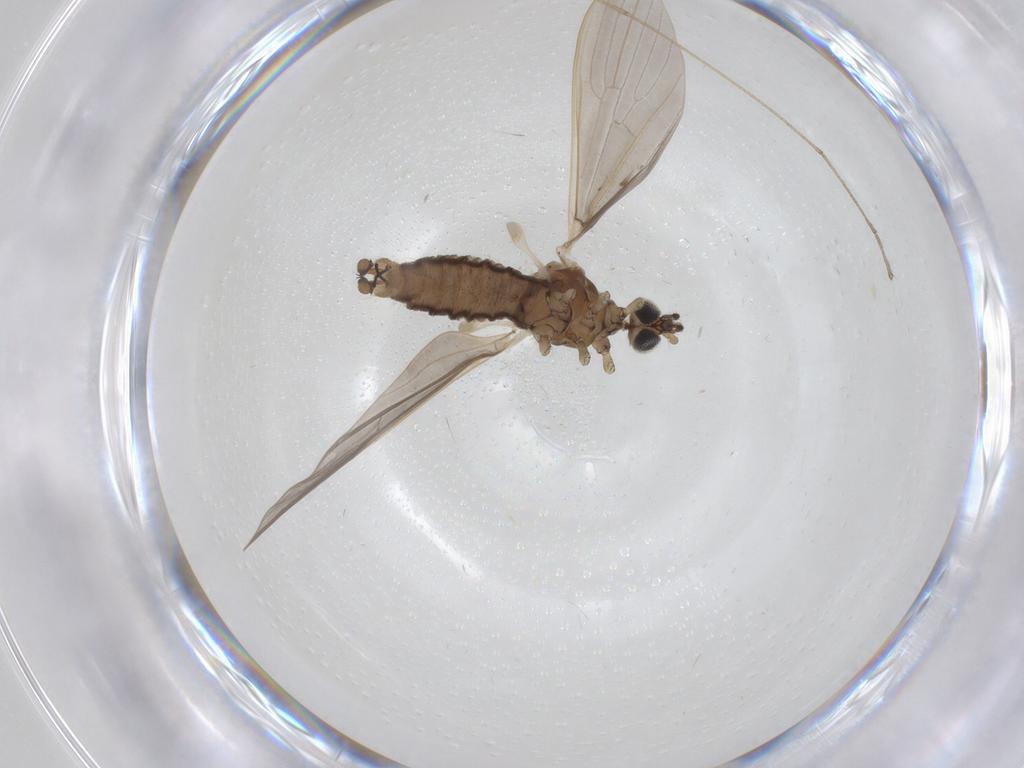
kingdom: Animalia
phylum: Arthropoda
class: Insecta
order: Diptera
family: Limoniidae
